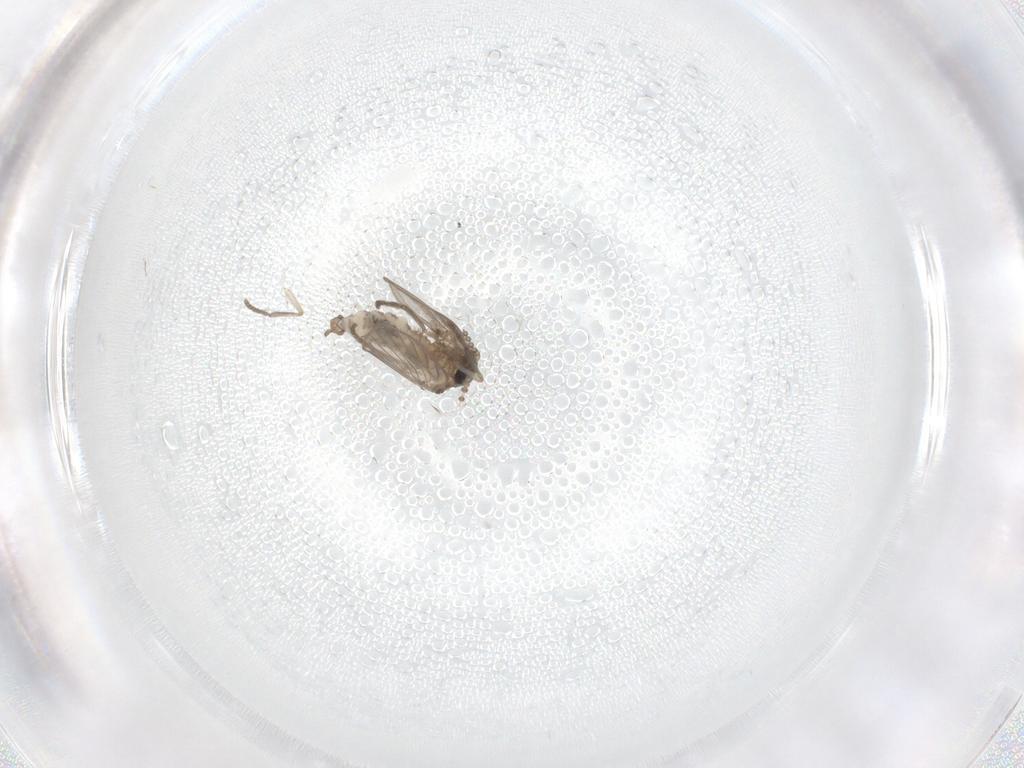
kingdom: Animalia
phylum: Arthropoda
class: Insecta
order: Diptera
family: Psychodidae
